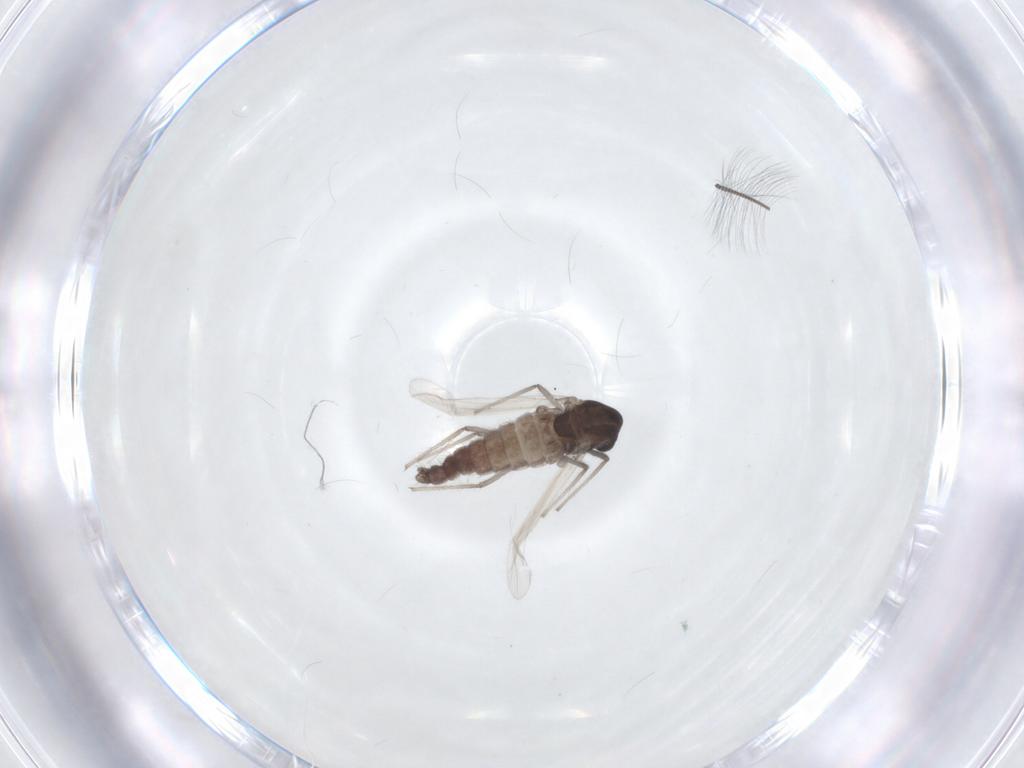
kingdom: Animalia
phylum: Arthropoda
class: Insecta
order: Diptera
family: Chironomidae
